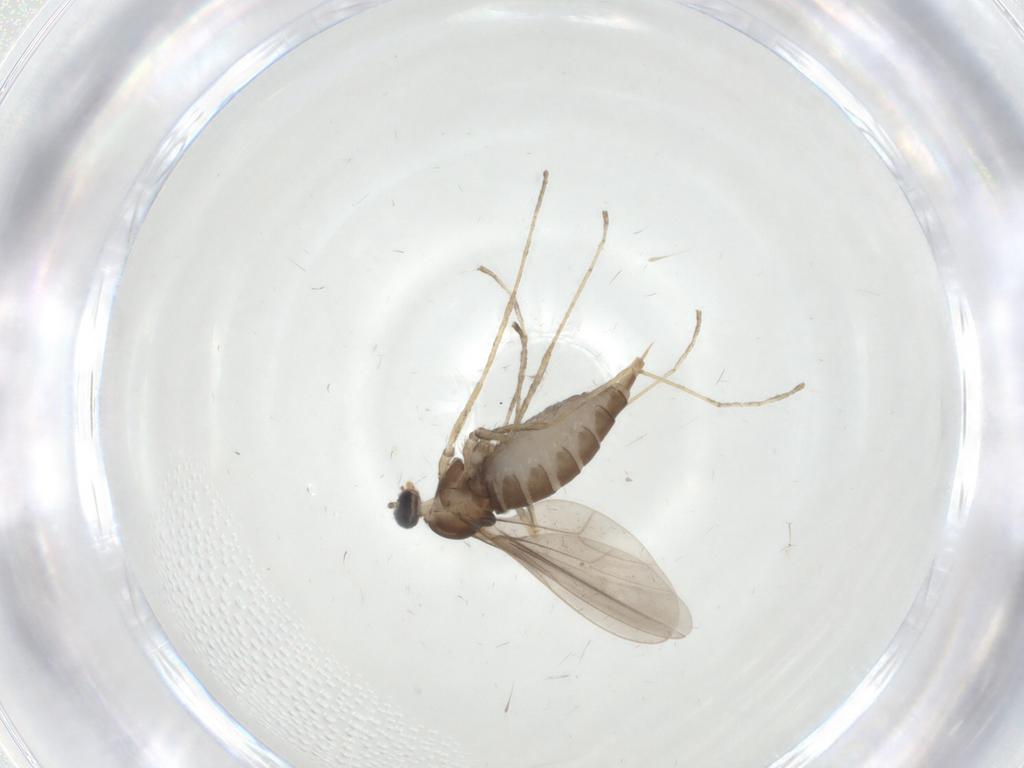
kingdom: Animalia
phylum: Arthropoda
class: Insecta
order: Diptera
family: Cecidomyiidae
